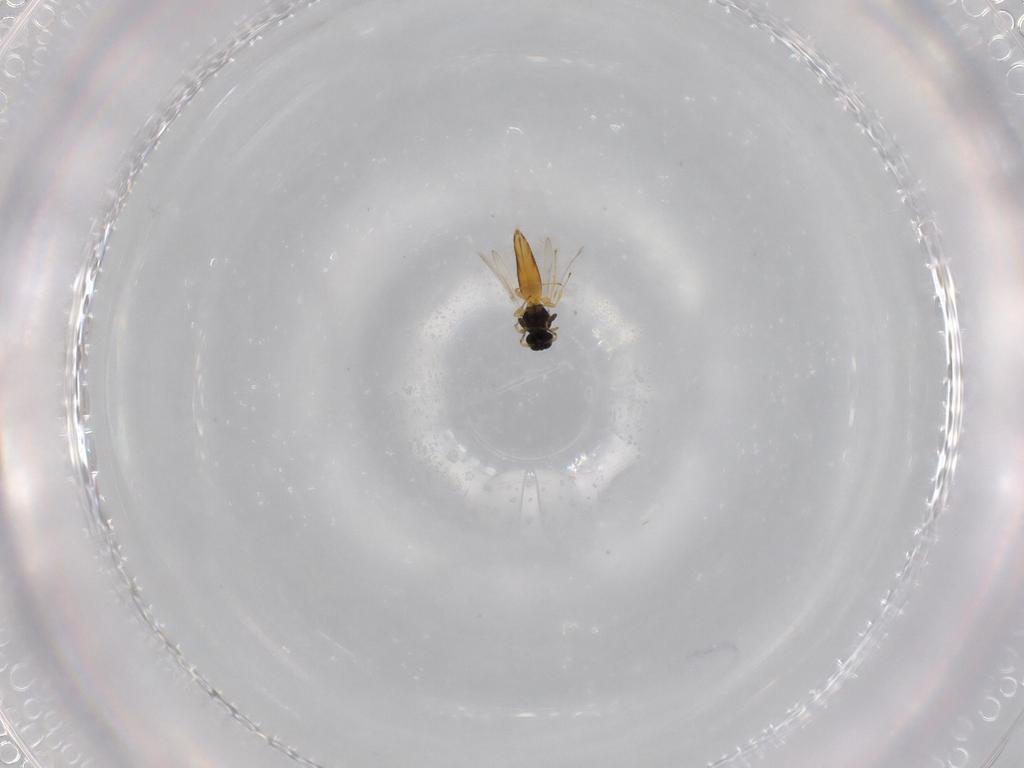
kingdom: Animalia
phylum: Arthropoda
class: Insecta
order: Hymenoptera
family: Scelionidae
